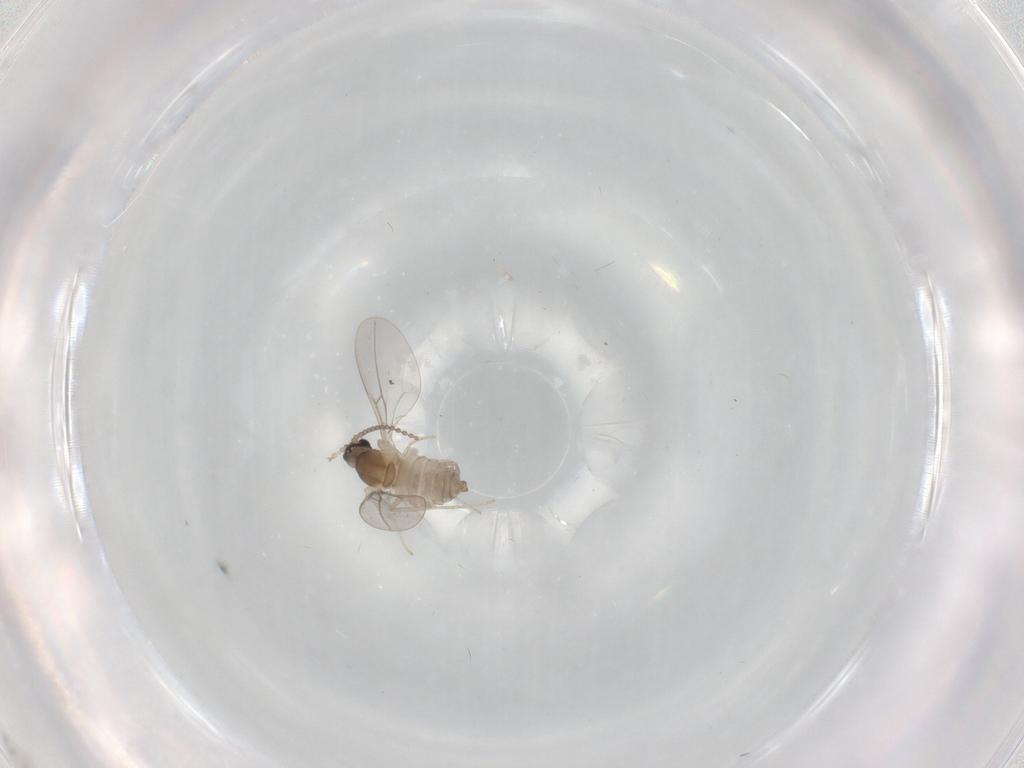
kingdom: Animalia
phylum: Arthropoda
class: Insecta
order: Diptera
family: Cecidomyiidae
